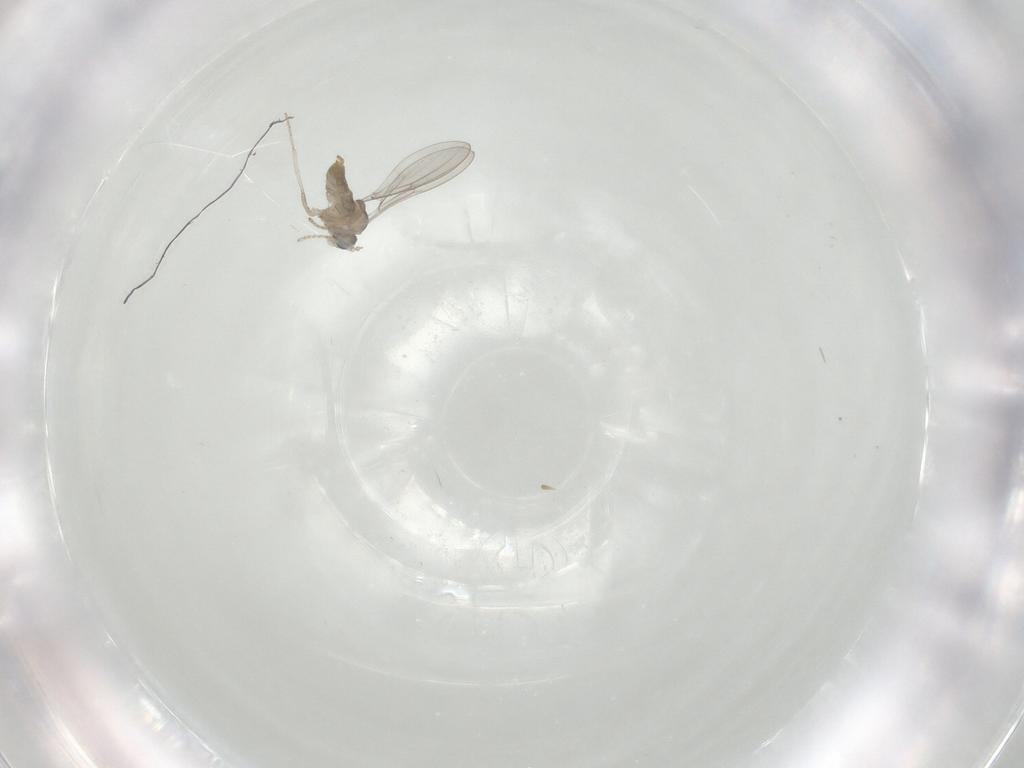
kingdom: Animalia
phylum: Arthropoda
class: Insecta
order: Diptera
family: Cecidomyiidae
